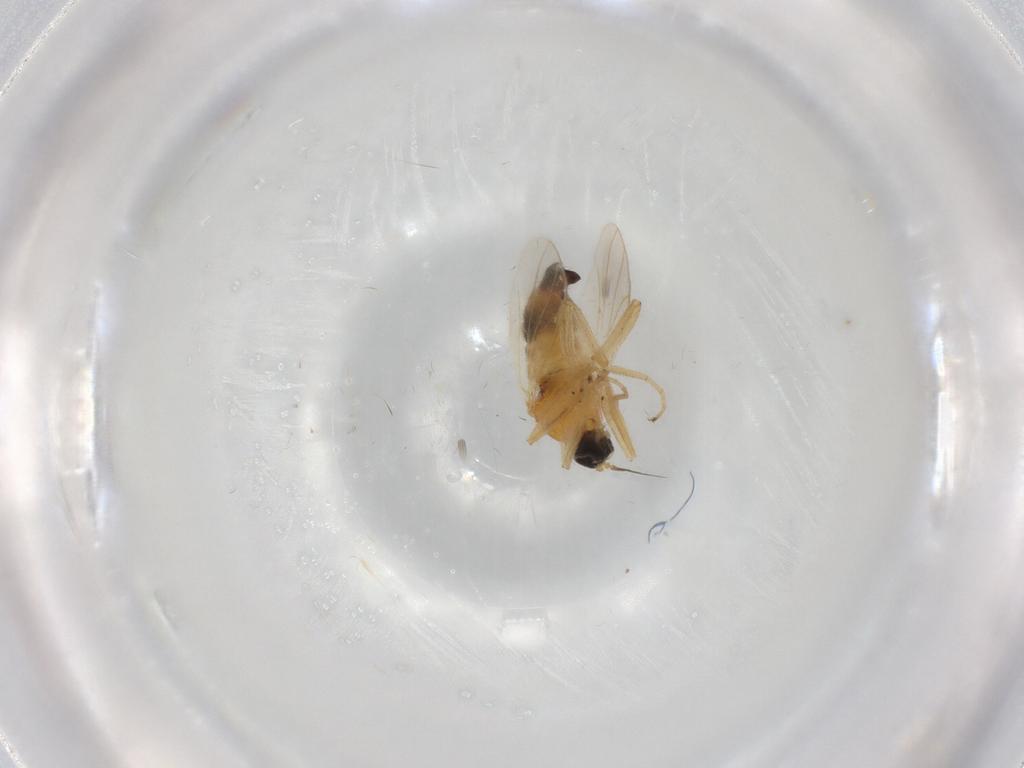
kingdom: Animalia
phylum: Arthropoda
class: Insecta
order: Diptera
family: Hybotidae
